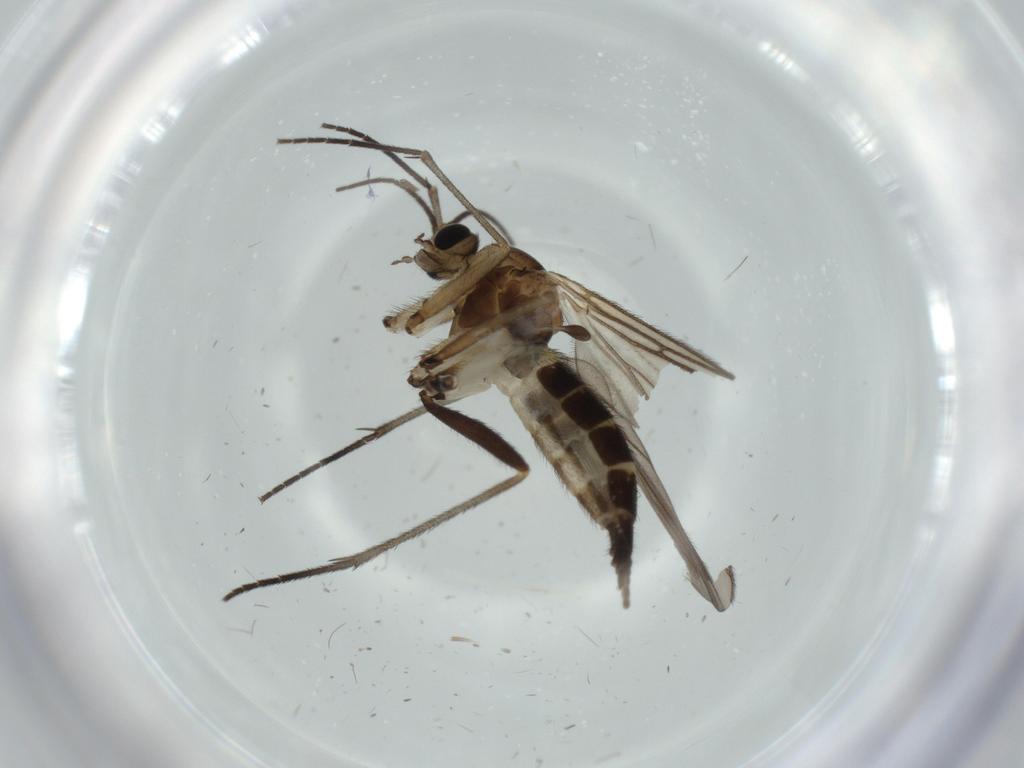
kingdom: Animalia
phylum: Arthropoda
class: Insecta
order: Diptera
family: Sciaridae
